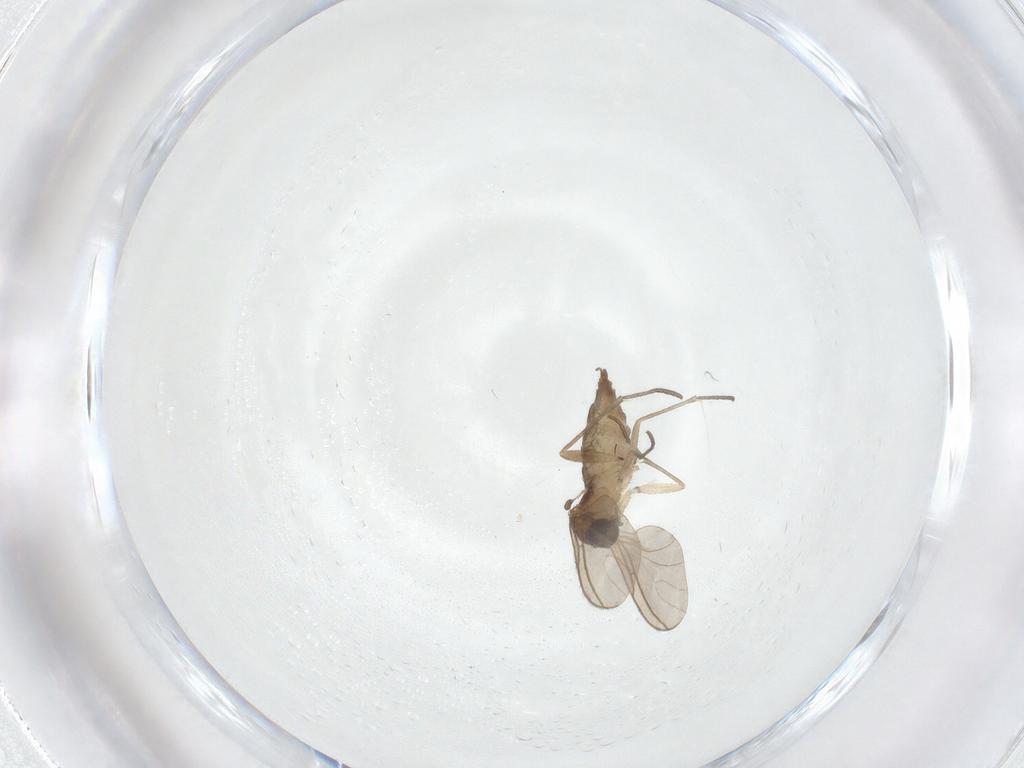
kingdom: Animalia
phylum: Arthropoda
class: Insecta
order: Diptera
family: Sciaridae
